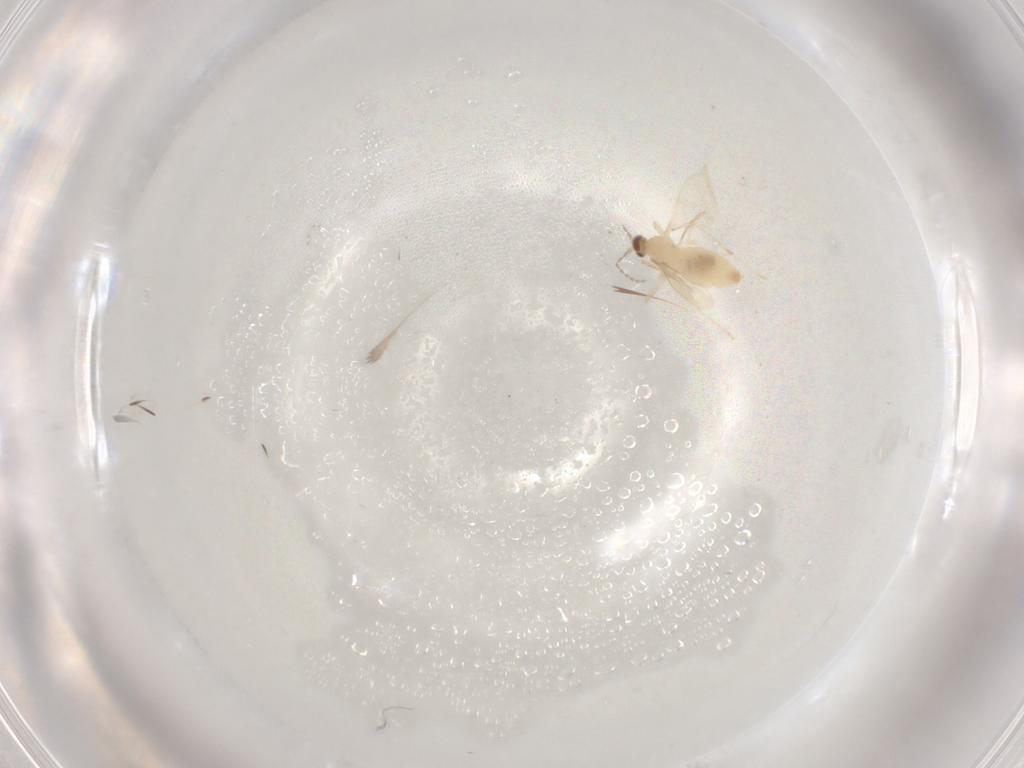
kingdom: Animalia
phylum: Arthropoda
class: Insecta
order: Diptera
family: Cecidomyiidae
